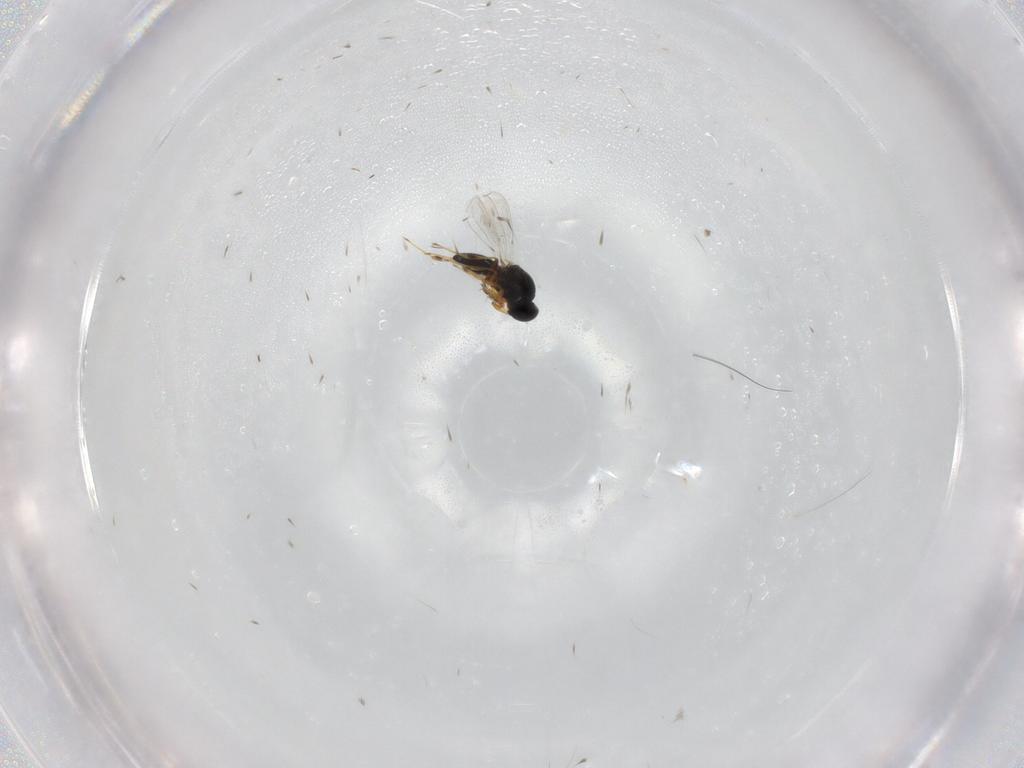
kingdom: Animalia
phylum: Arthropoda
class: Insecta
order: Hymenoptera
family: Platygastridae
